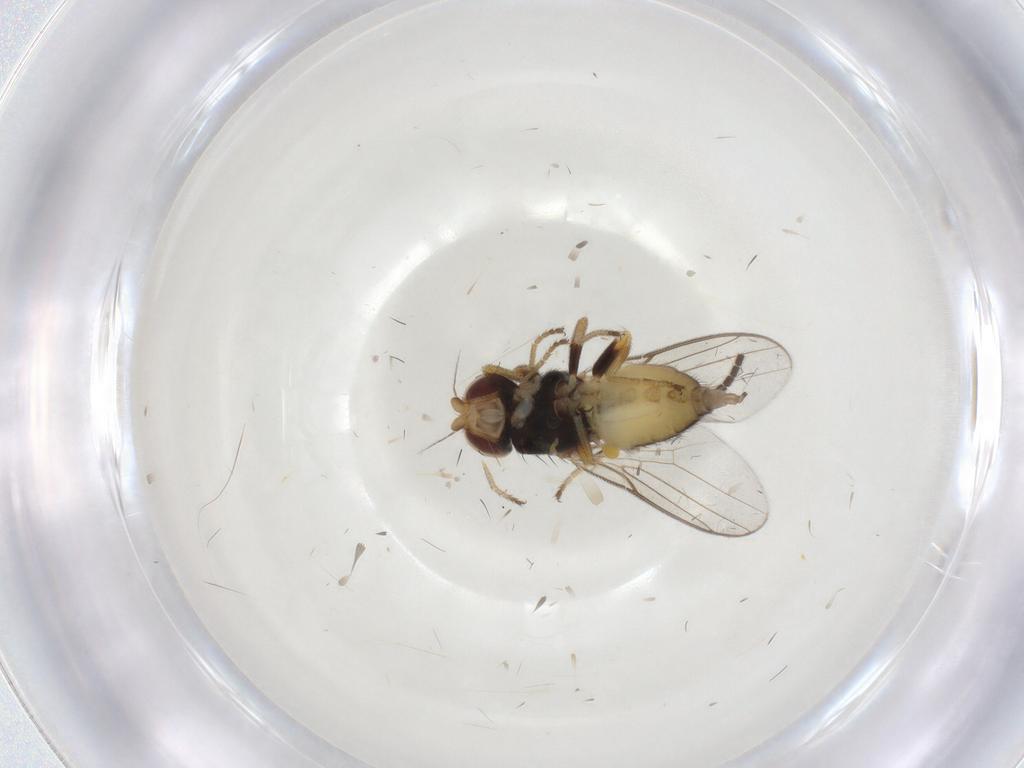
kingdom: Animalia
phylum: Arthropoda
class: Insecta
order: Diptera
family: Chloropidae
